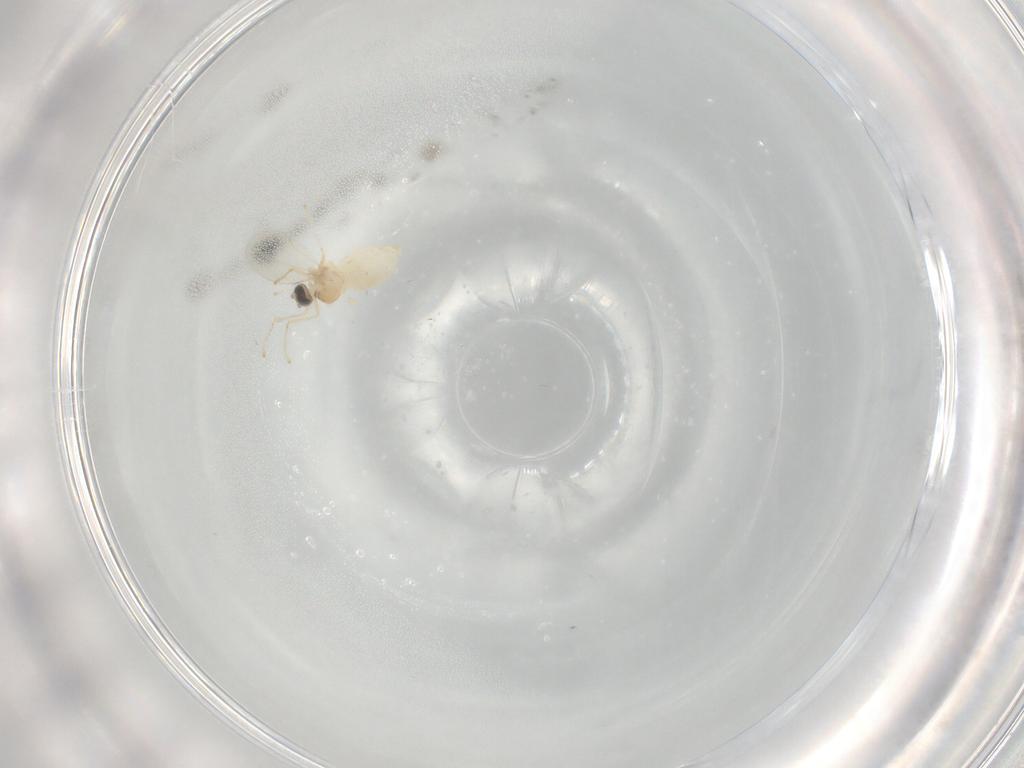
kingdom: Animalia
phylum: Arthropoda
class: Insecta
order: Diptera
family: Cecidomyiidae
